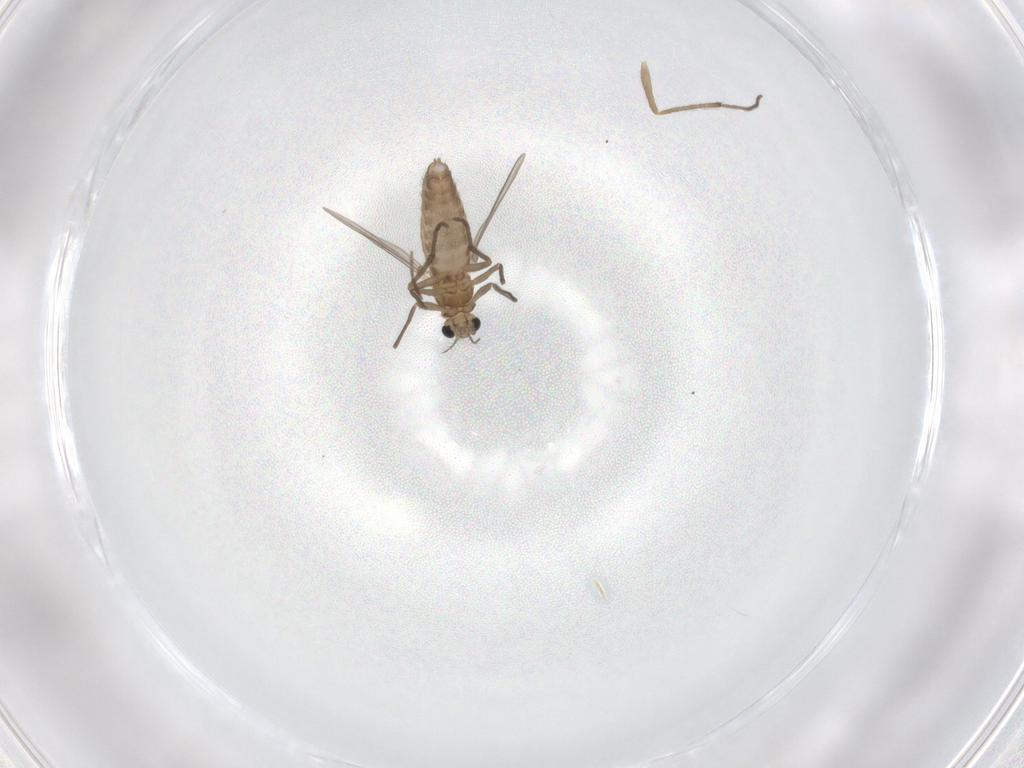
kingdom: Animalia
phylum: Arthropoda
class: Insecta
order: Diptera
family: Chironomidae
